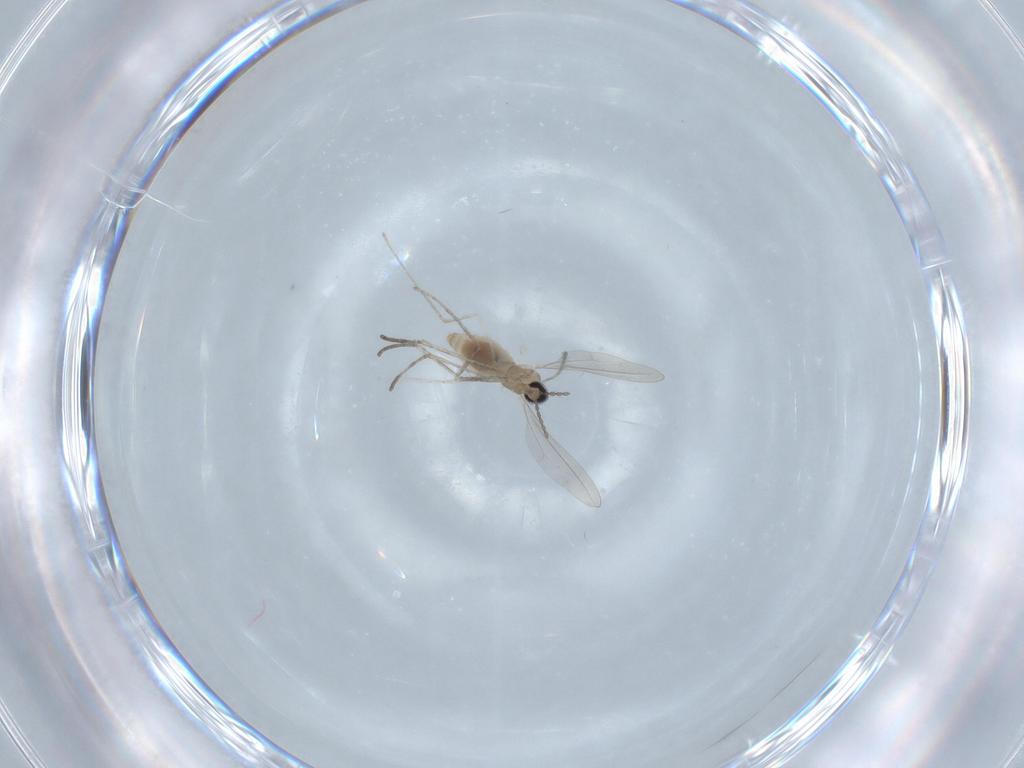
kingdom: Animalia
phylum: Arthropoda
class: Insecta
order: Diptera
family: Cecidomyiidae
